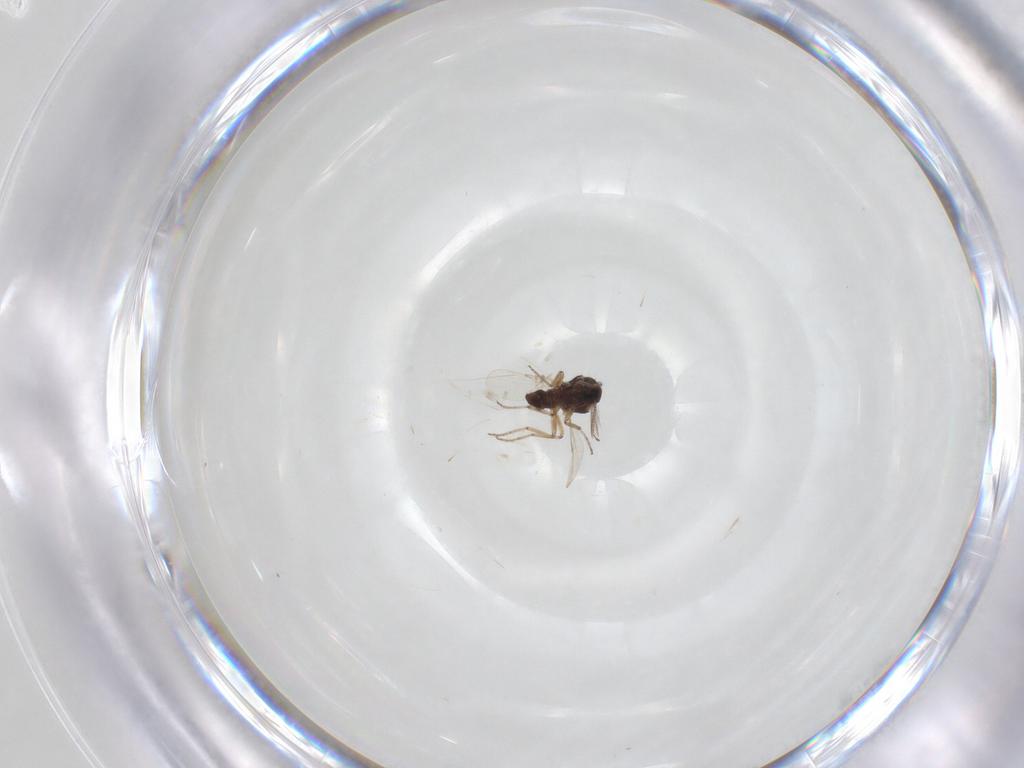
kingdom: Animalia
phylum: Arthropoda
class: Insecta
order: Diptera
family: Ceratopogonidae
